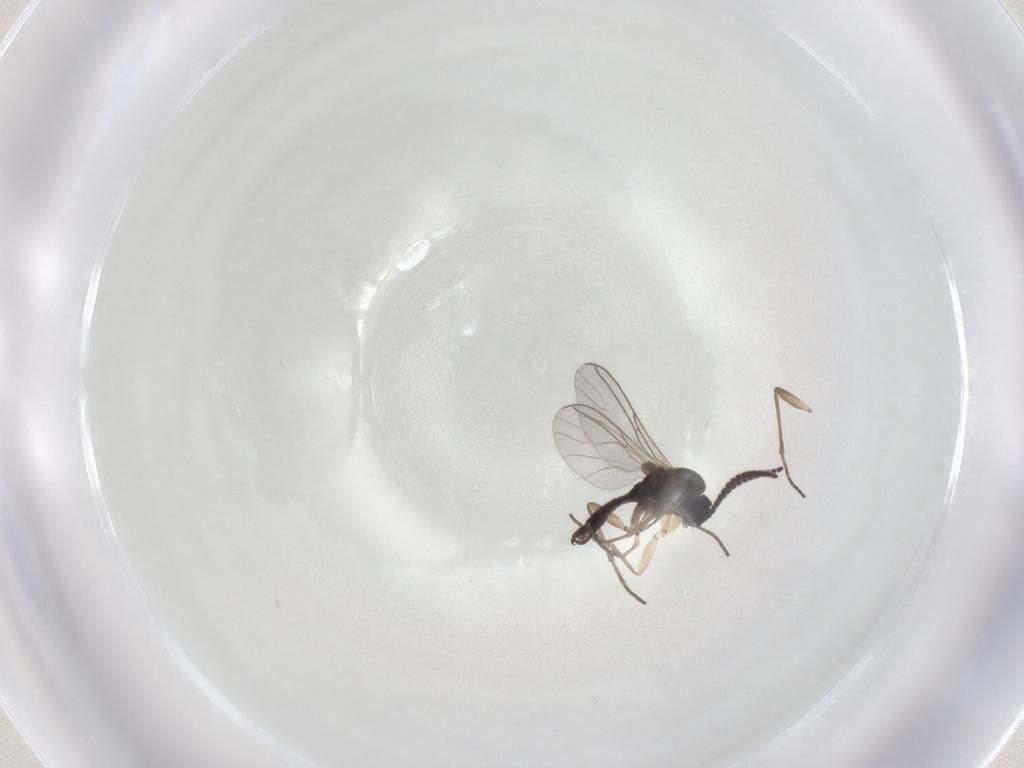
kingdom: Animalia
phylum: Arthropoda
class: Insecta
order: Diptera
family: Sciaridae
